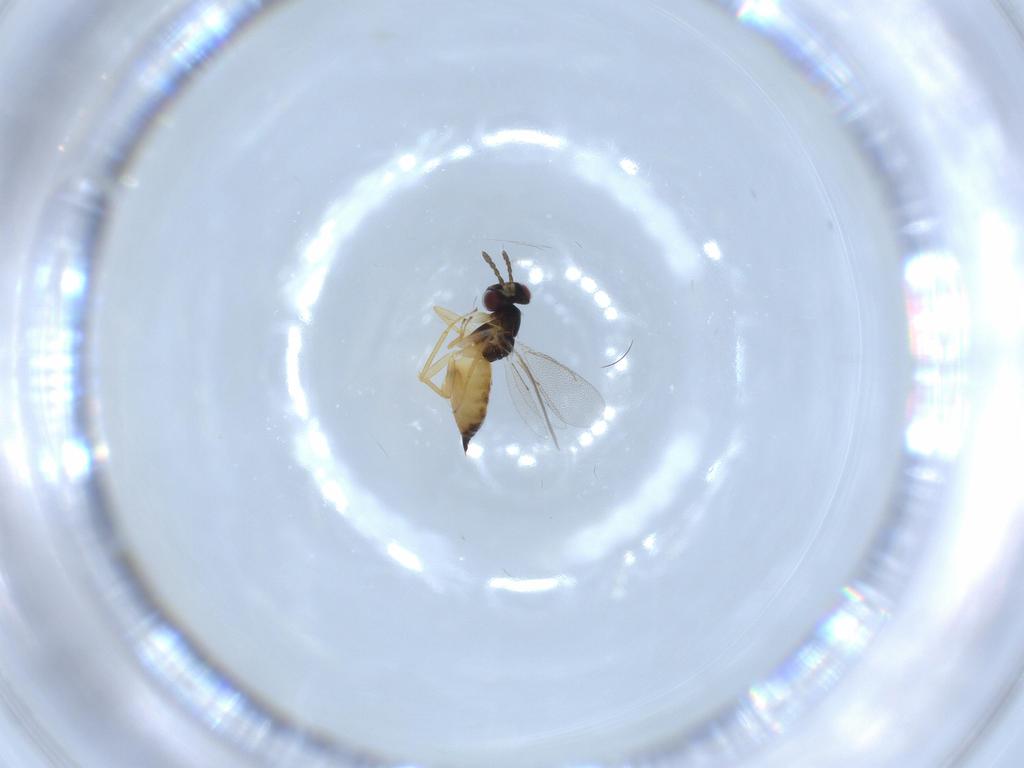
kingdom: Animalia
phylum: Arthropoda
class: Insecta
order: Hymenoptera
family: Eulophidae
